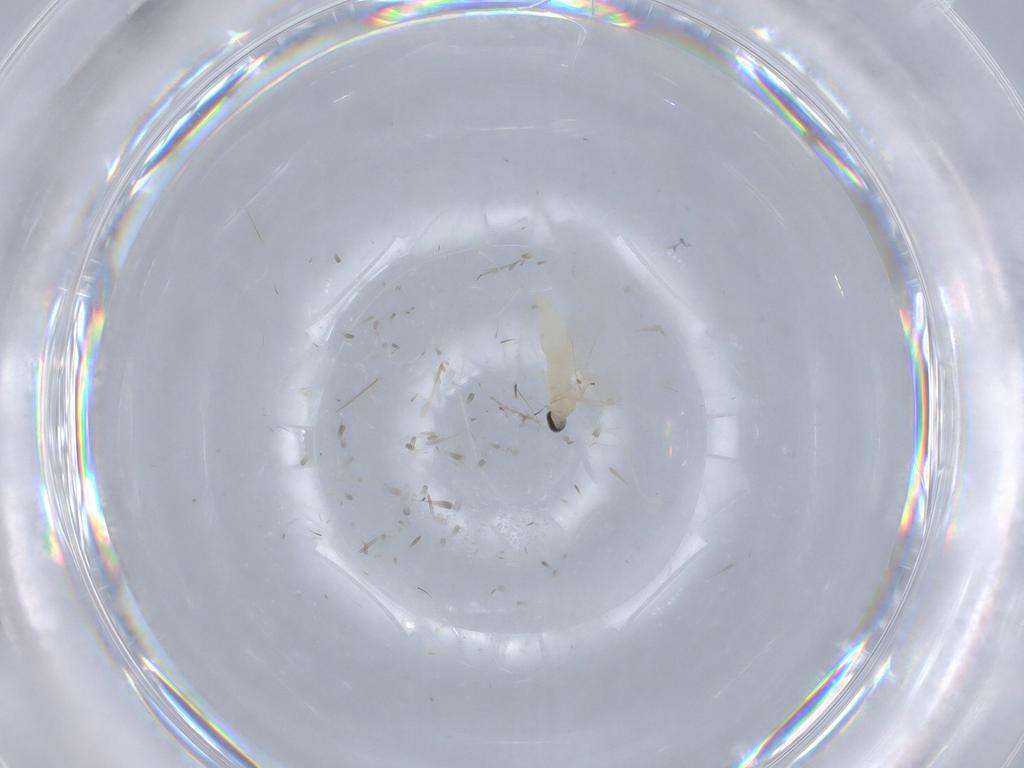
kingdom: Animalia
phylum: Arthropoda
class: Insecta
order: Diptera
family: Cecidomyiidae
